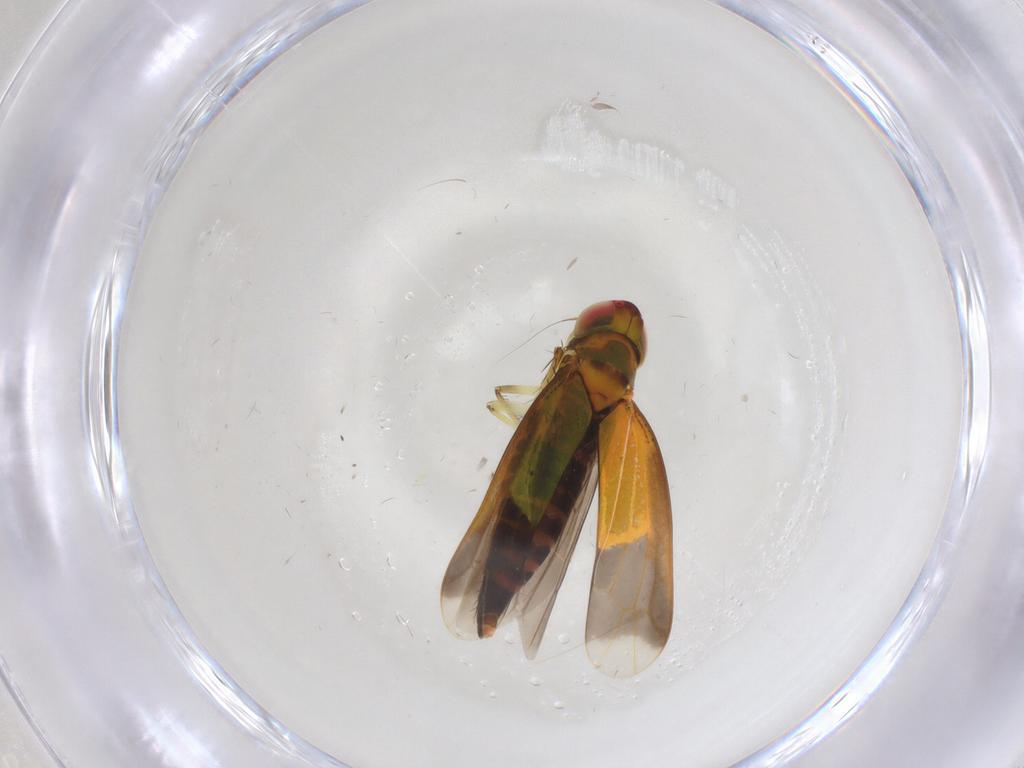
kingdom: Animalia
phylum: Arthropoda
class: Insecta
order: Hemiptera
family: Cicadellidae
